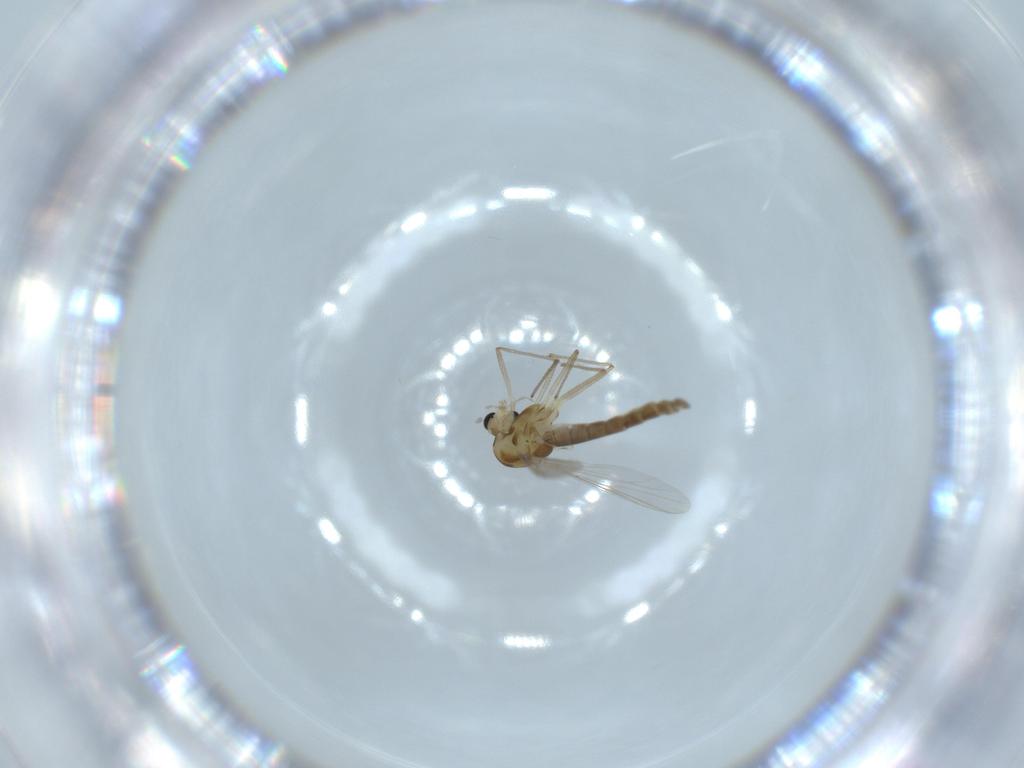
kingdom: Animalia
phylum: Arthropoda
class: Insecta
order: Diptera
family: Chironomidae
